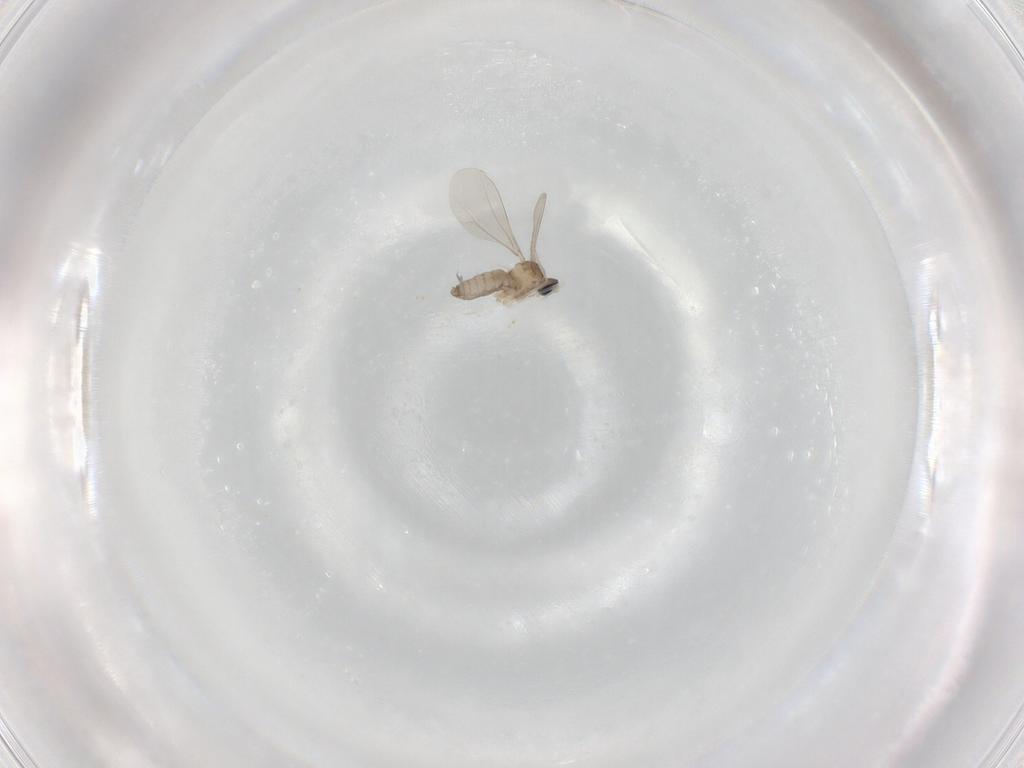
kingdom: Animalia
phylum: Arthropoda
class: Insecta
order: Diptera
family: Cecidomyiidae
